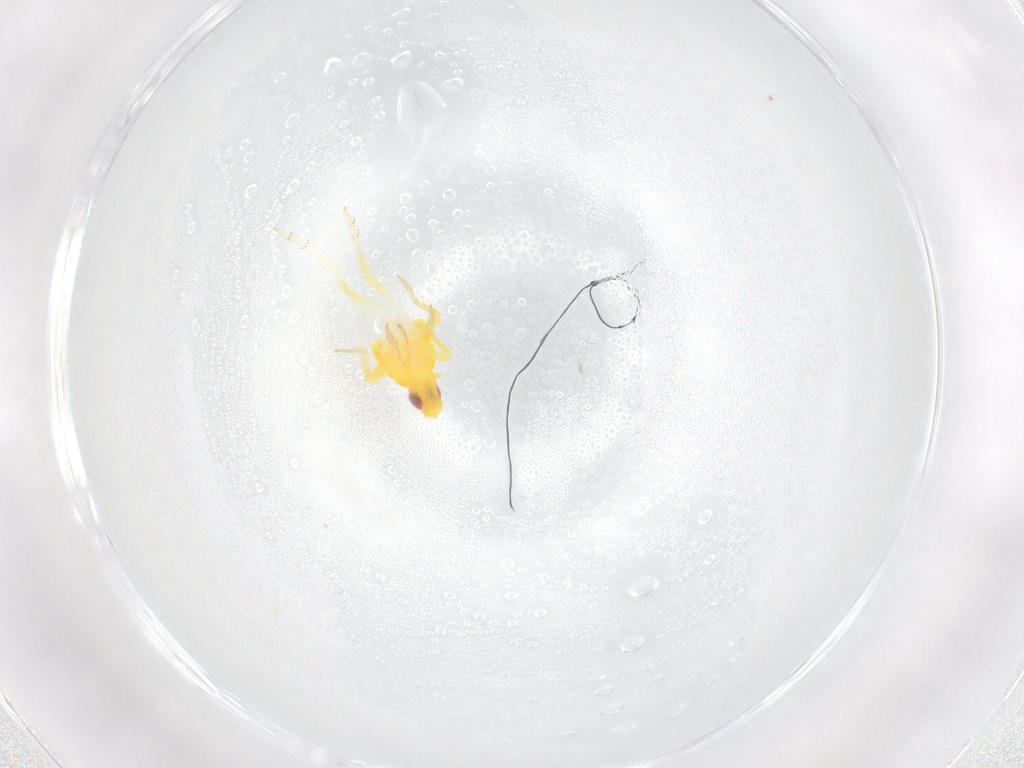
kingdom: Animalia
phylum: Arthropoda
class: Insecta
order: Hemiptera
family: Tropiduchidae
